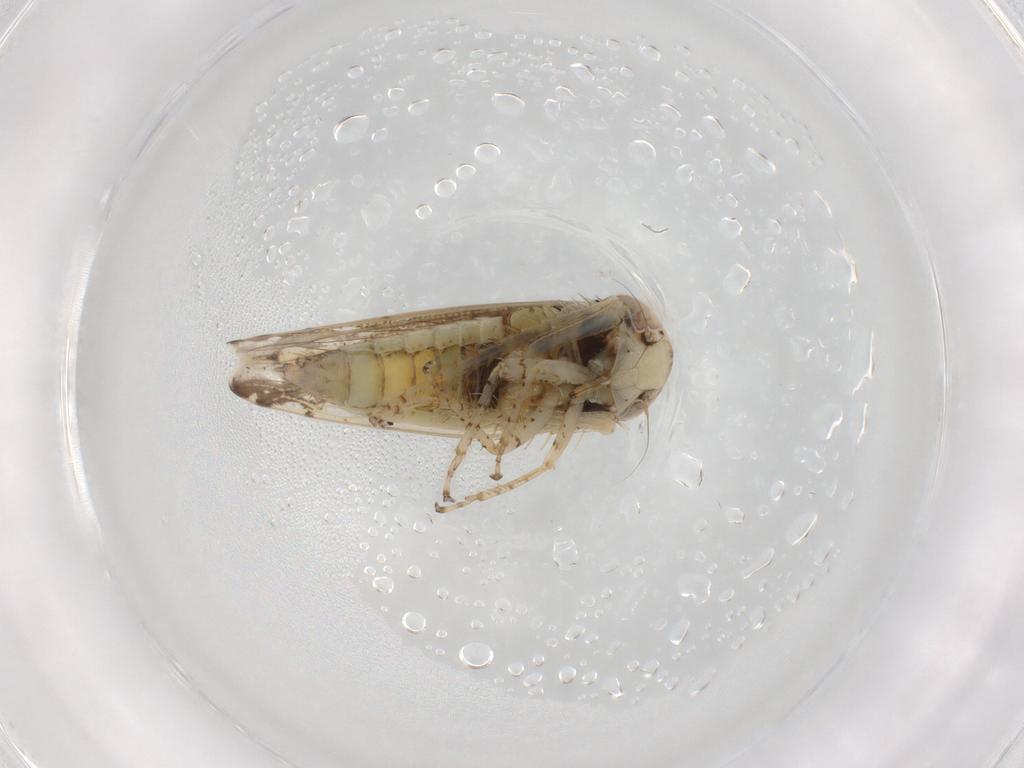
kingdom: Animalia
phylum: Arthropoda
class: Insecta
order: Hemiptera
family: Cicadellidae
